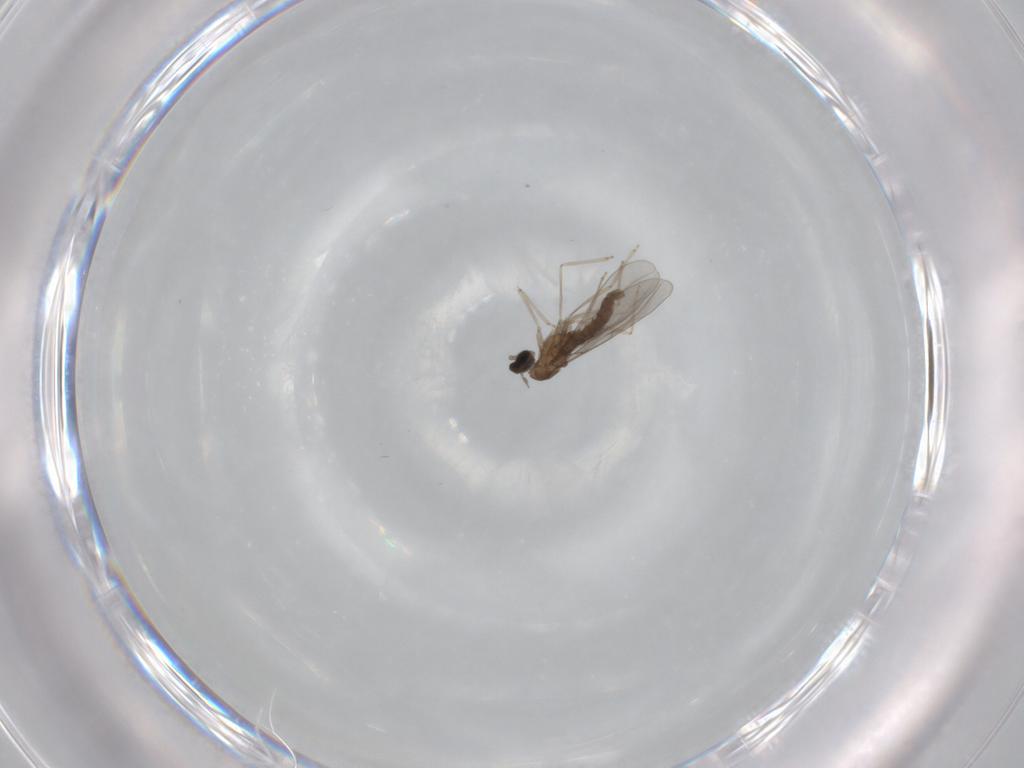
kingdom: Animalia
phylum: Arthropoda
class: Insecta
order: Diptera
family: Cecidomyiidae
